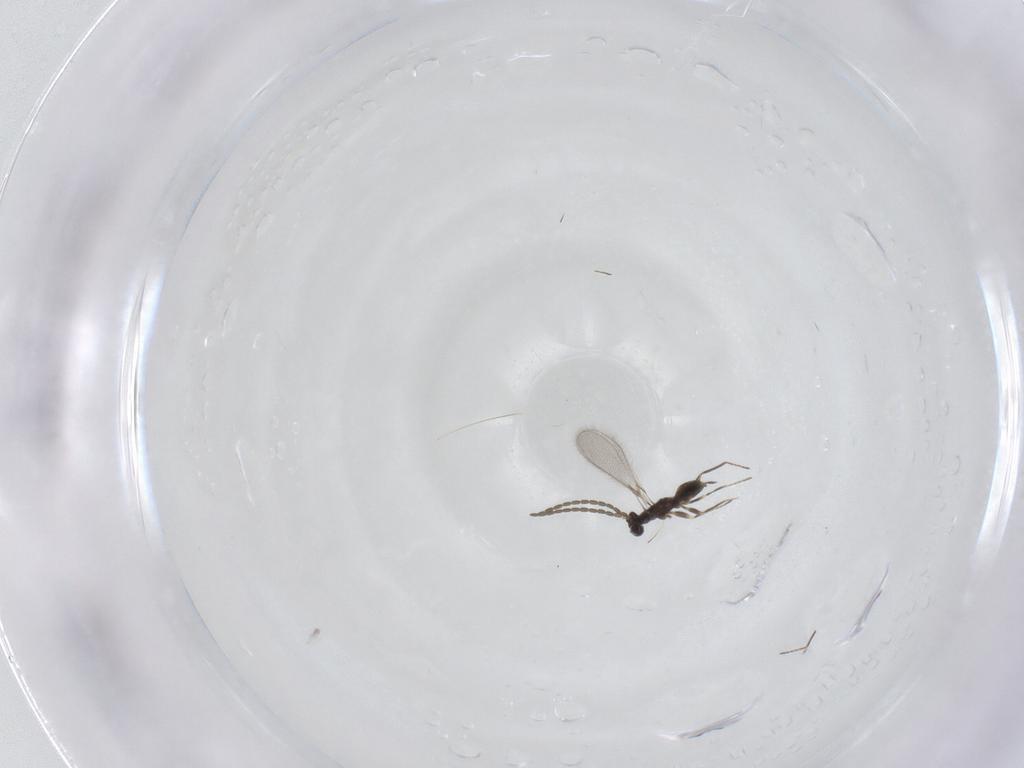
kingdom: Animalia
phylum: Arthropoda
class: Insecta
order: Hymenoptera
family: Mymaridae
